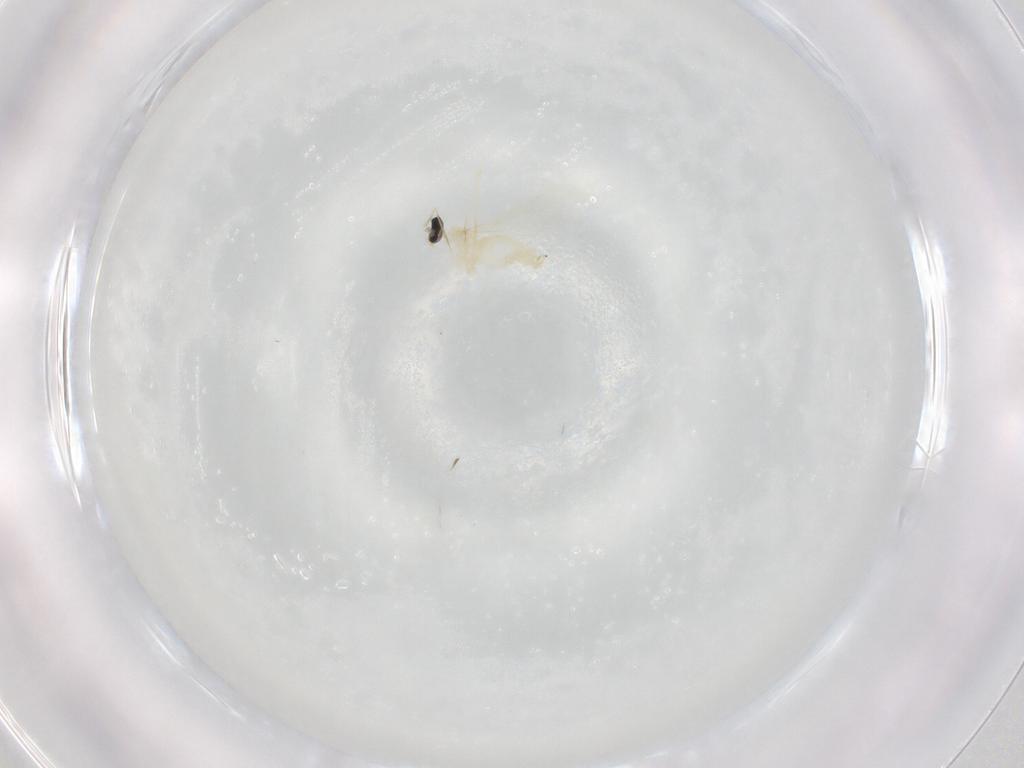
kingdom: Animalia
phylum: Arthropoda
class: Insecta
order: Diptera
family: Cecidomyiidae
